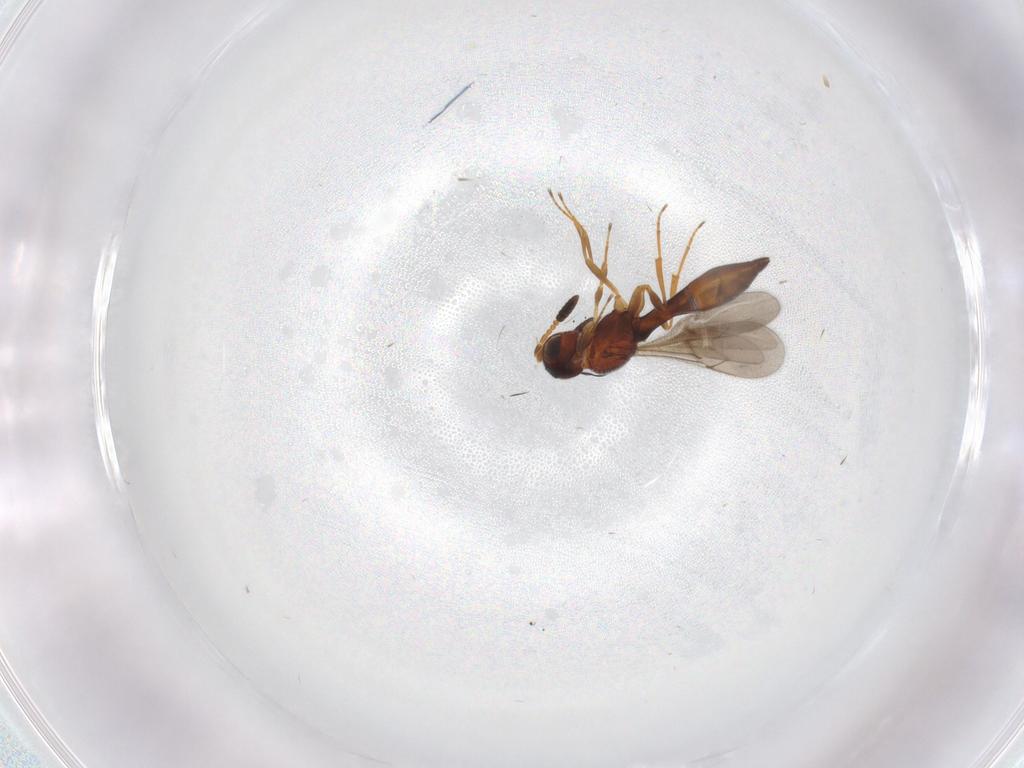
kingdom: Animalia
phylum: Arthropoda
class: Insecta
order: Hymenoptera
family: Scelionidae
